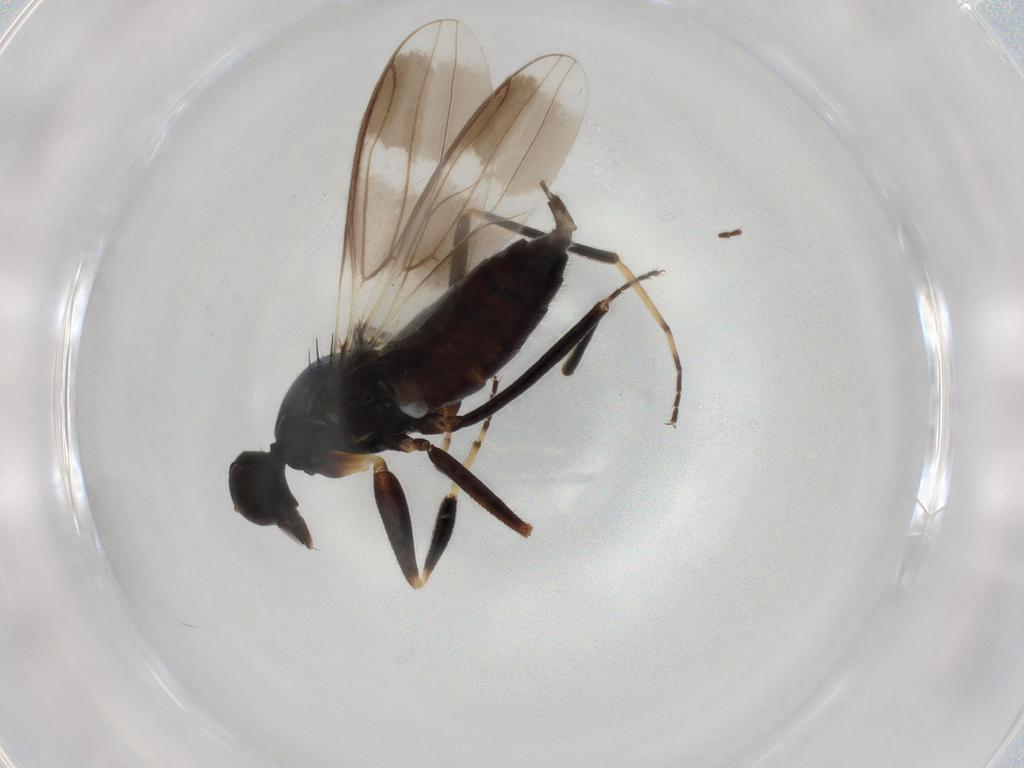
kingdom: Animalia
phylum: Arthropoda
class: Insecta
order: Diptera
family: Hybotidae
